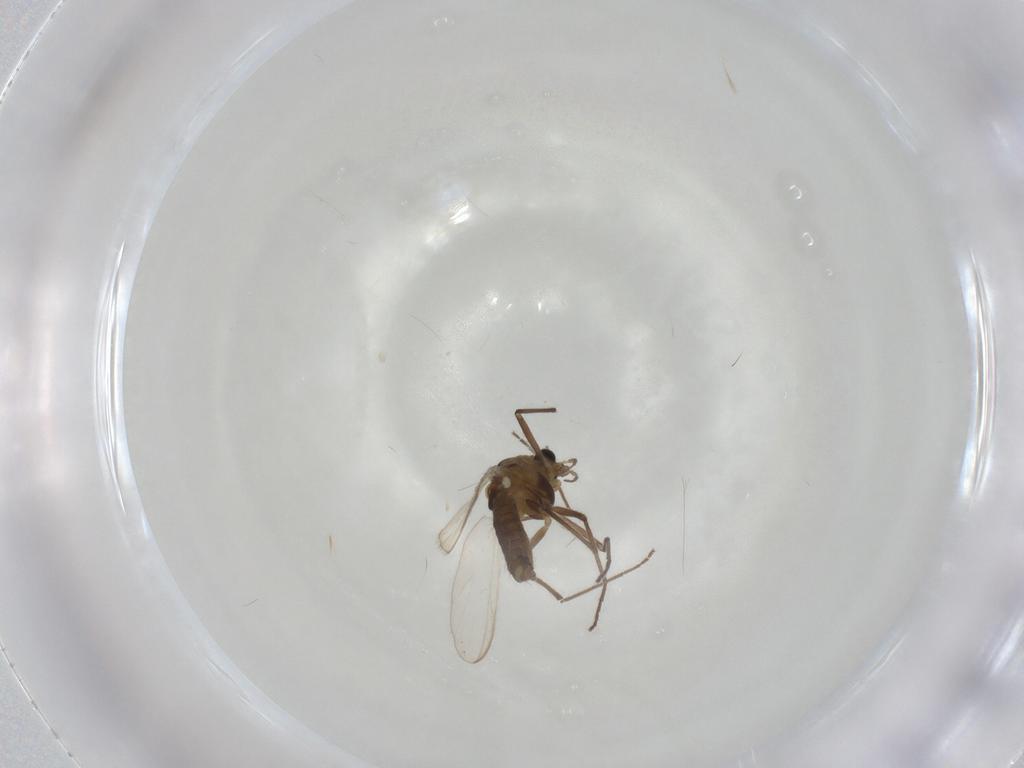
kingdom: Animalia
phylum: Arthropoda
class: Insecta
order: Diptera
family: Chironomidae
